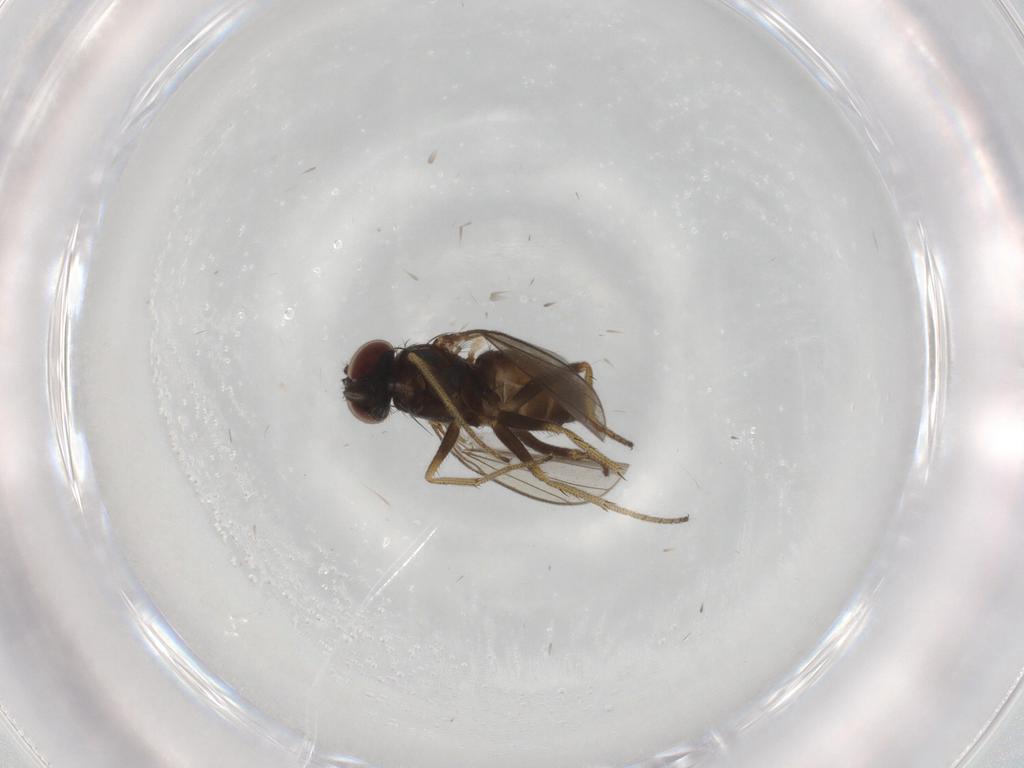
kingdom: Animalia
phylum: Arthropoda
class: Insecta
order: Diptera
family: Dolichopodidae
